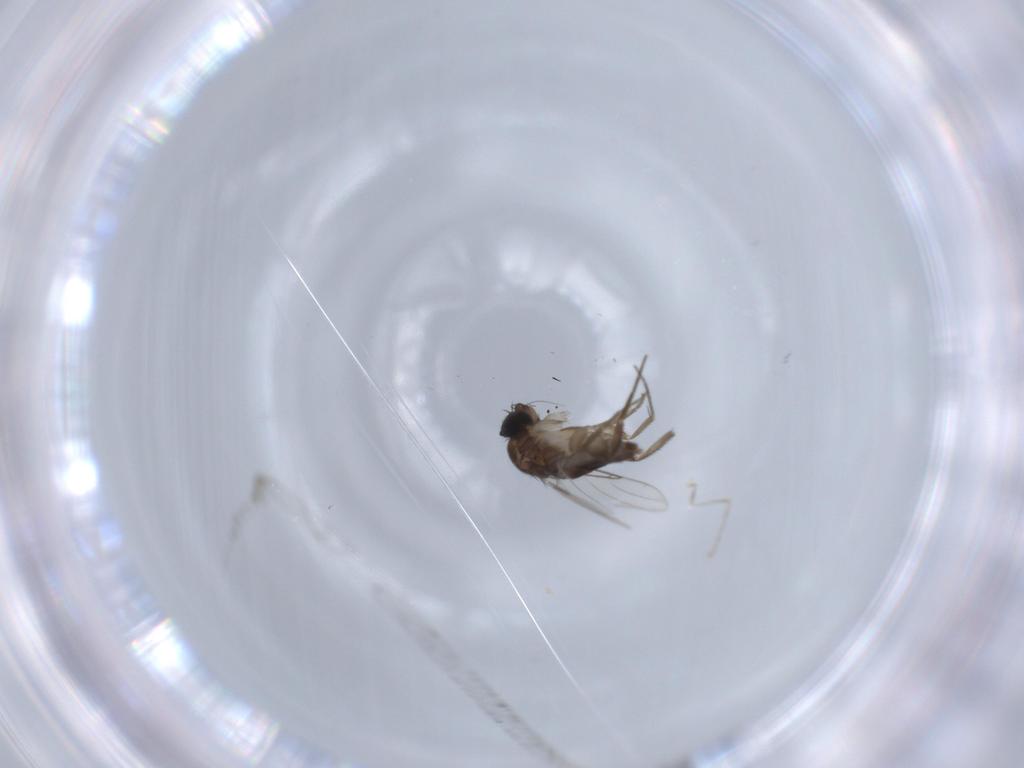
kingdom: Animalia
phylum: Arthropoda
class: Insecta
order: Diptera
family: Phoridae
